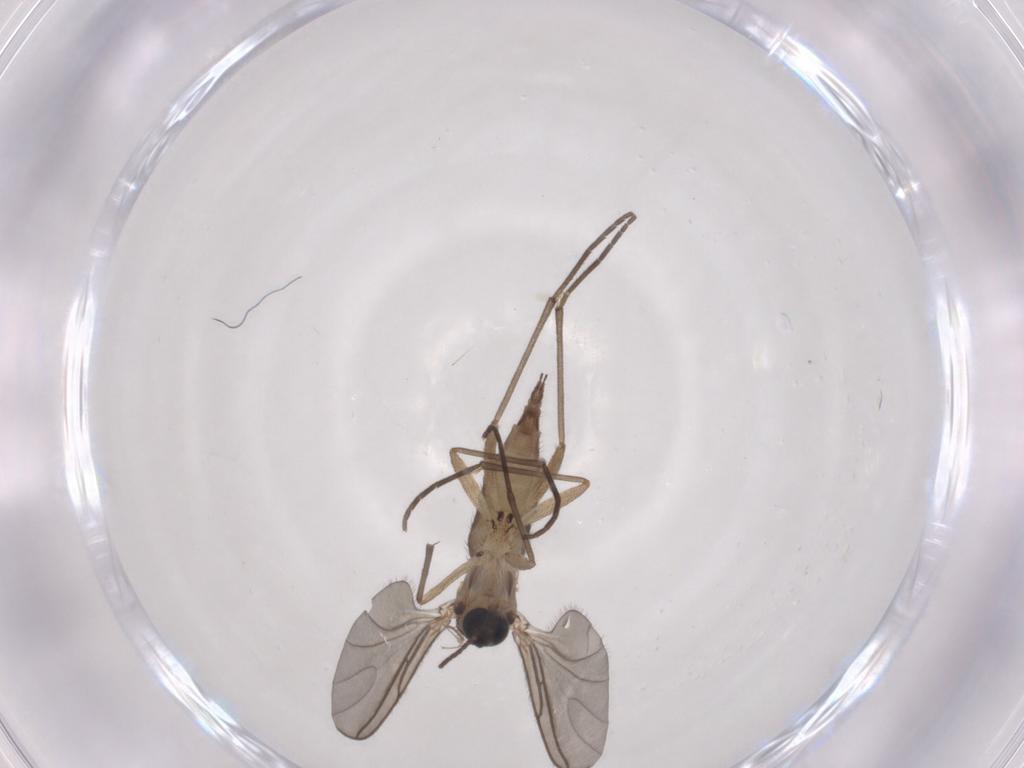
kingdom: Animalia
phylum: Arthropoda
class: Insecta
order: Diptera
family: Sciaridae
